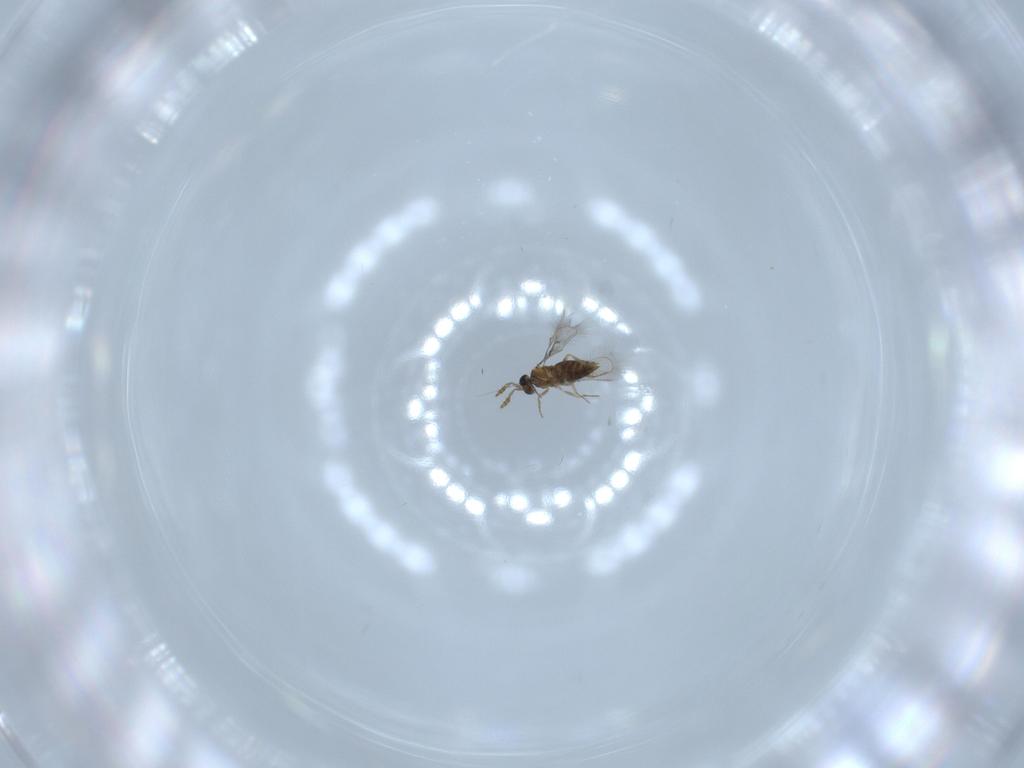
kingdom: Animalia
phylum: Arthropoda
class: Insecta
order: Hymenoptera
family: Trichogrammatidae
